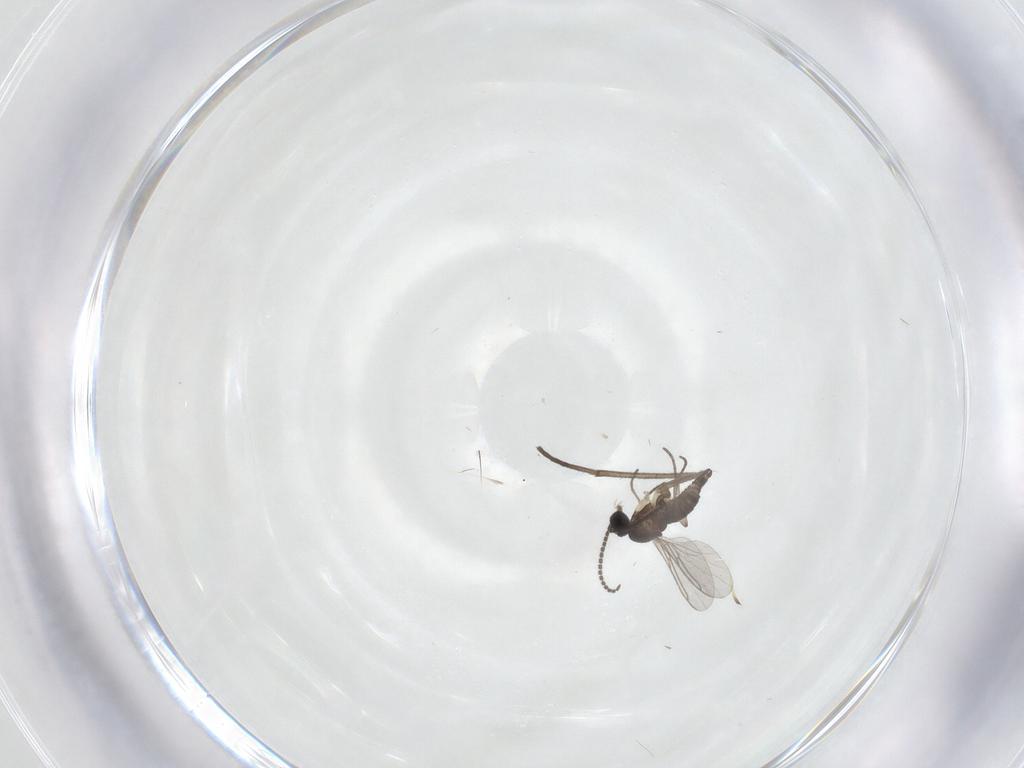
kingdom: Animalia
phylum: Arthropoda
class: Insecta
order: Diptera
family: Sciaridae
